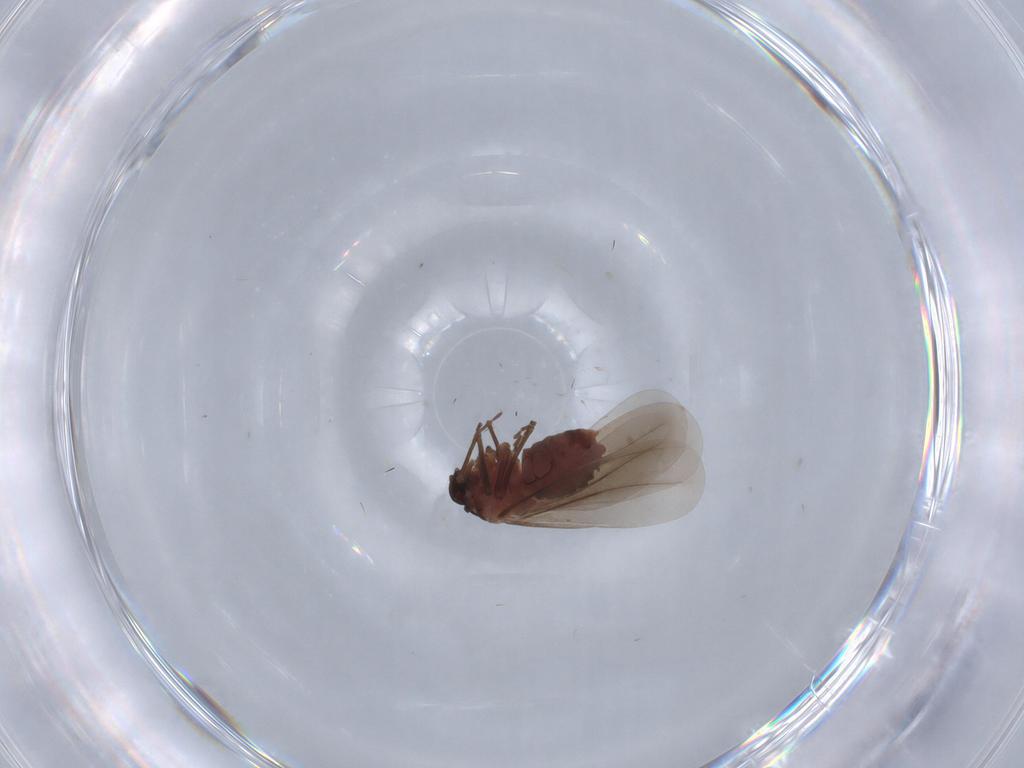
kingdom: Animalia
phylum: Arthropoda
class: Insecta
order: Hemiptera
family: Aleyrodidae
